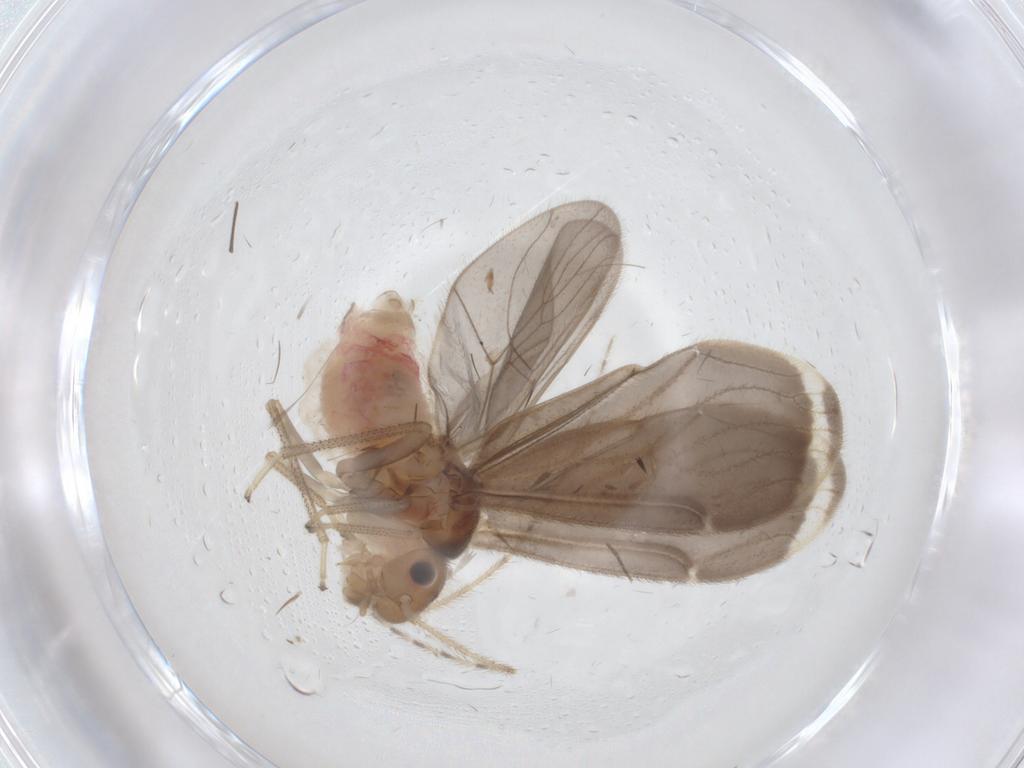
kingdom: Animalia
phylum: Arthropoda
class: Insecta
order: Psocodea
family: Amphipsocidae
